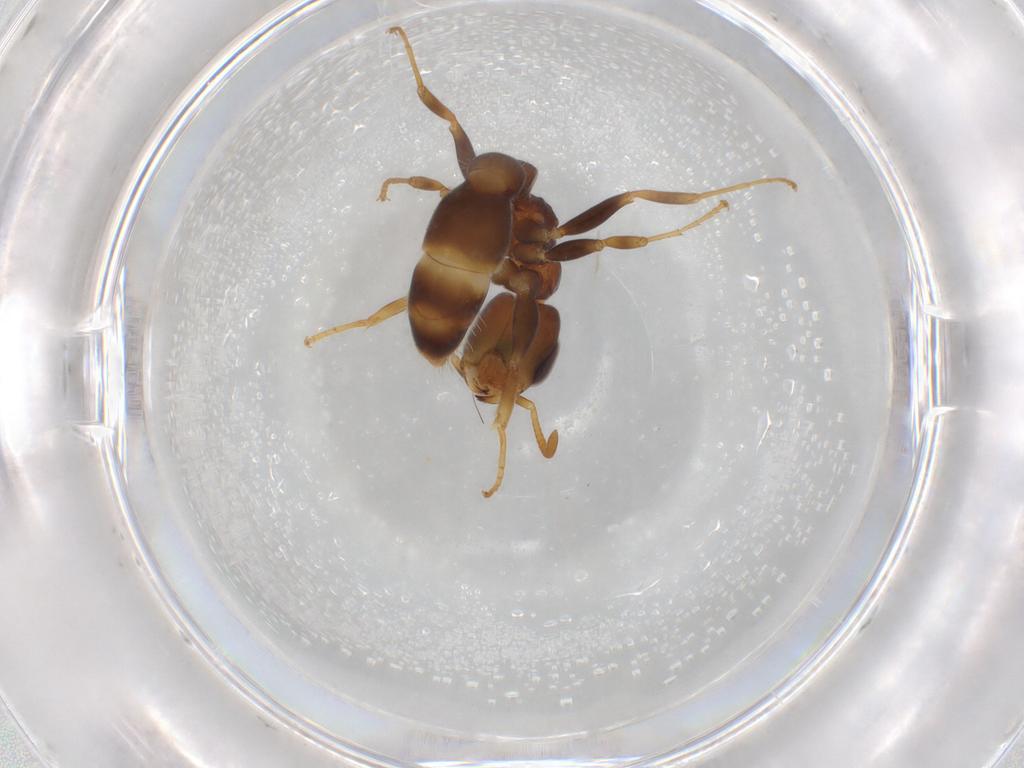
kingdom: Animalia
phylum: Arthropoda
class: Insecta
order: Hymenoptera
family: Formicidae
